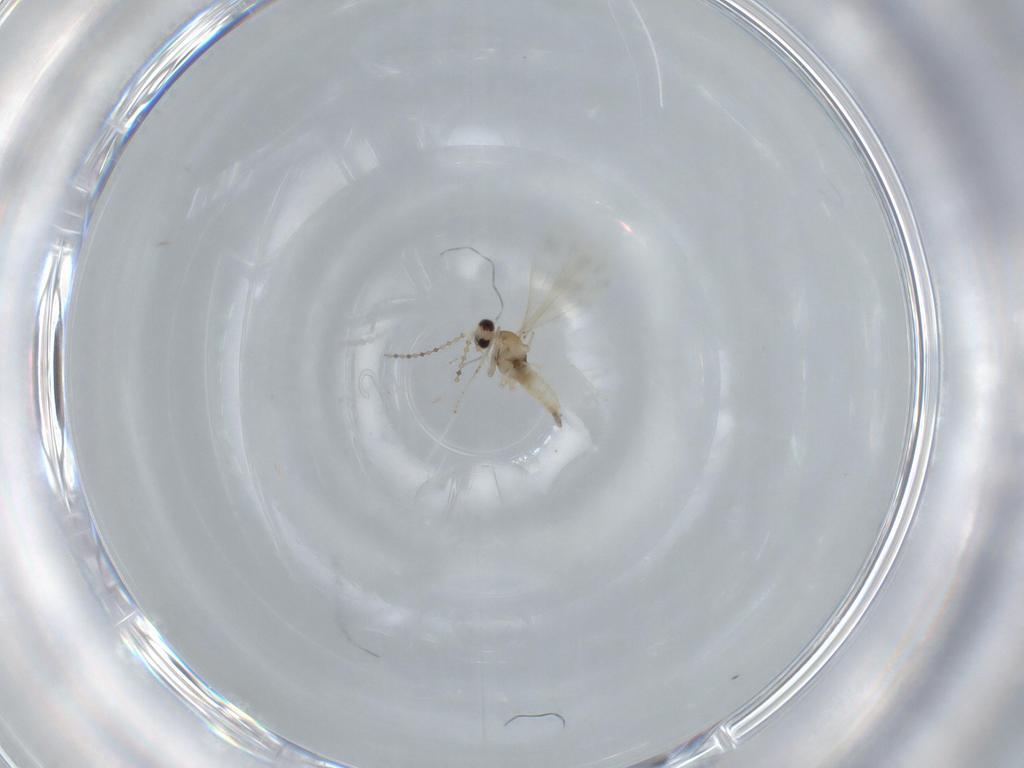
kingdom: Animalia
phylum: Arthropoda
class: Insecta
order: Diptera
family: Cecidomyiidae
